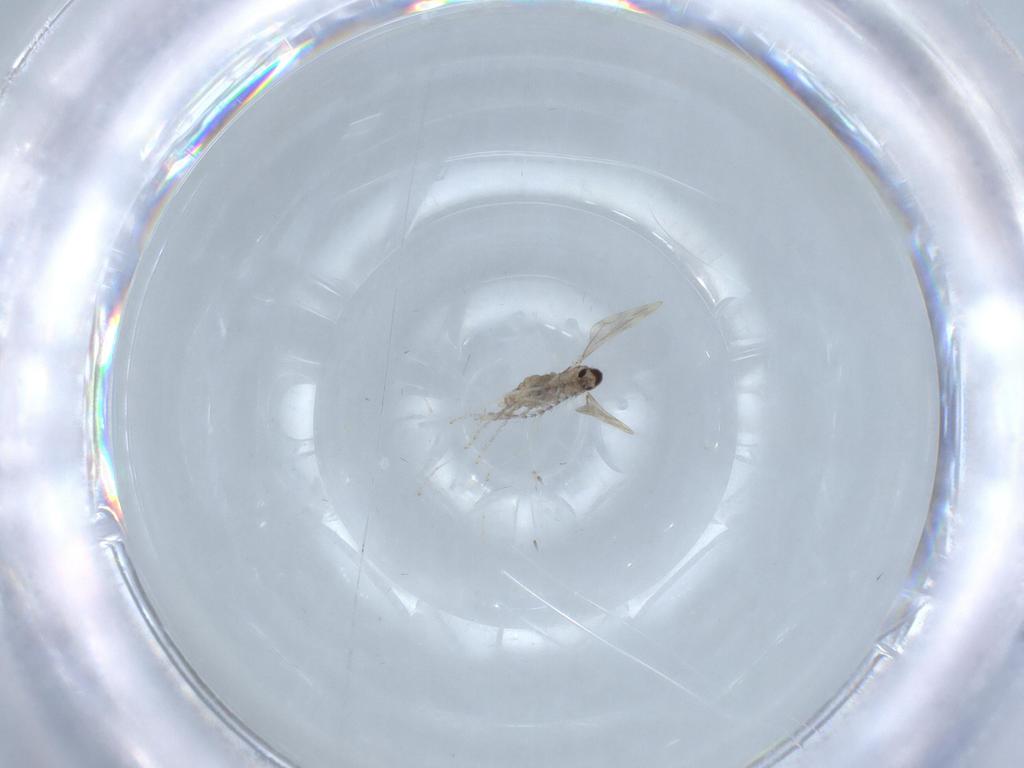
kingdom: Animalia
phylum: Arthropoda
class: Insecta
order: Diptera
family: Cecidomyiidae
